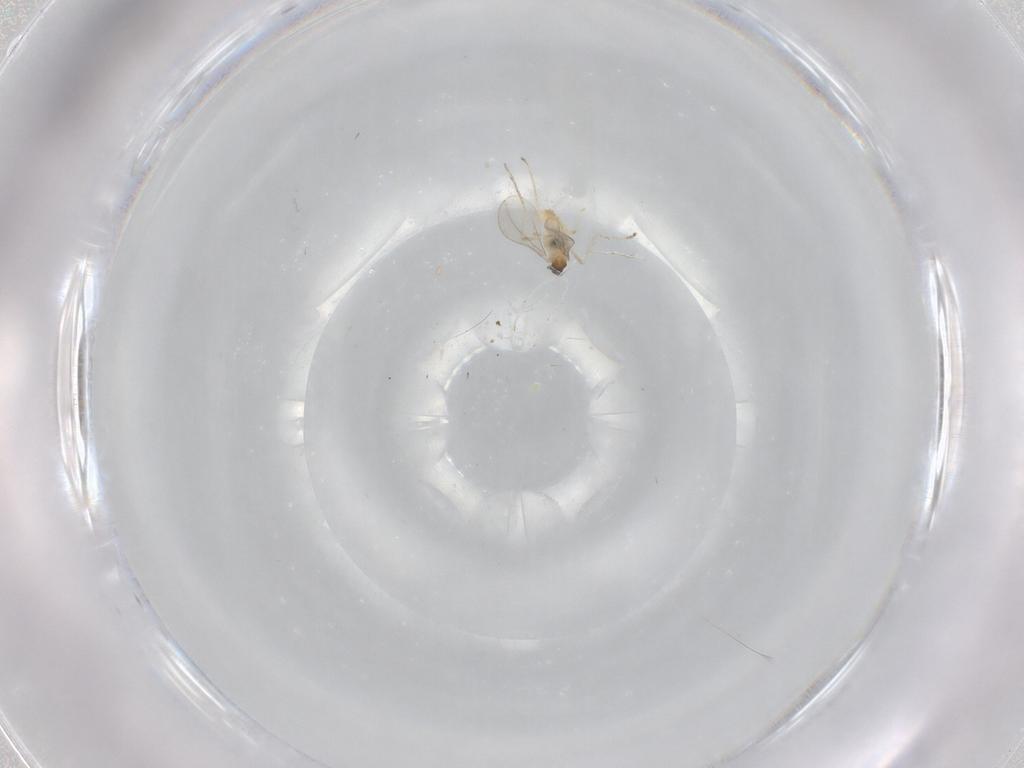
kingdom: Animalia
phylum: Arthropoda
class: Insecta
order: Diptera
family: Cecidomyiidae
